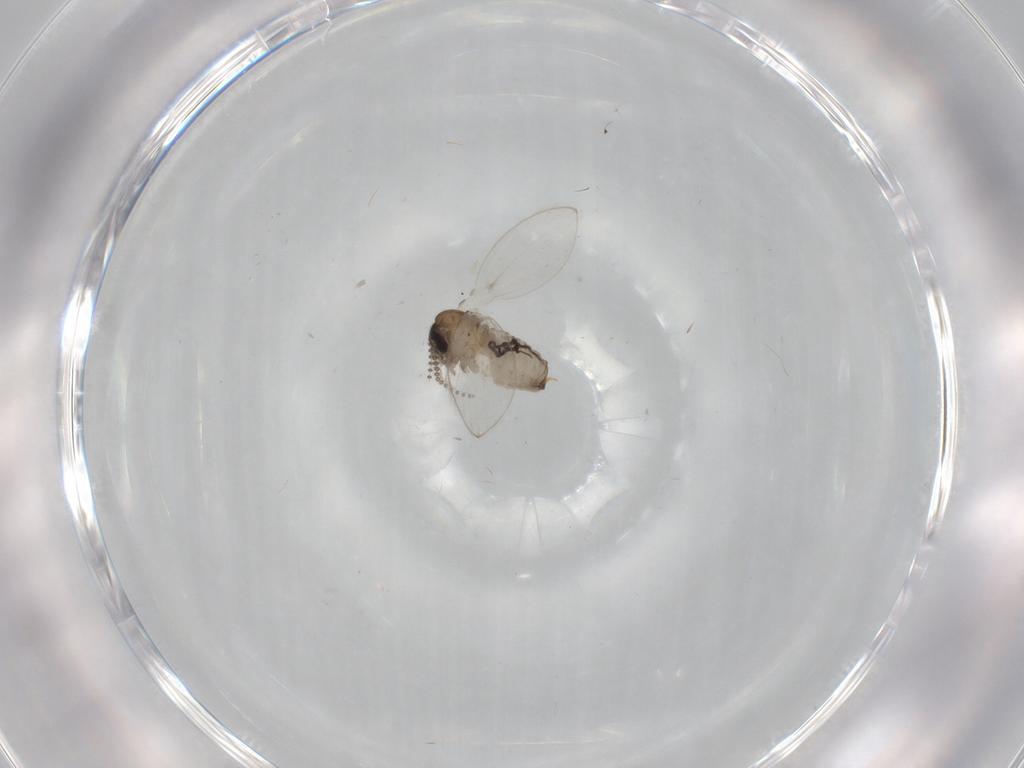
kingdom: Animalia
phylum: Arthropoda
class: Insecta
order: Diptera
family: Psychodidae
